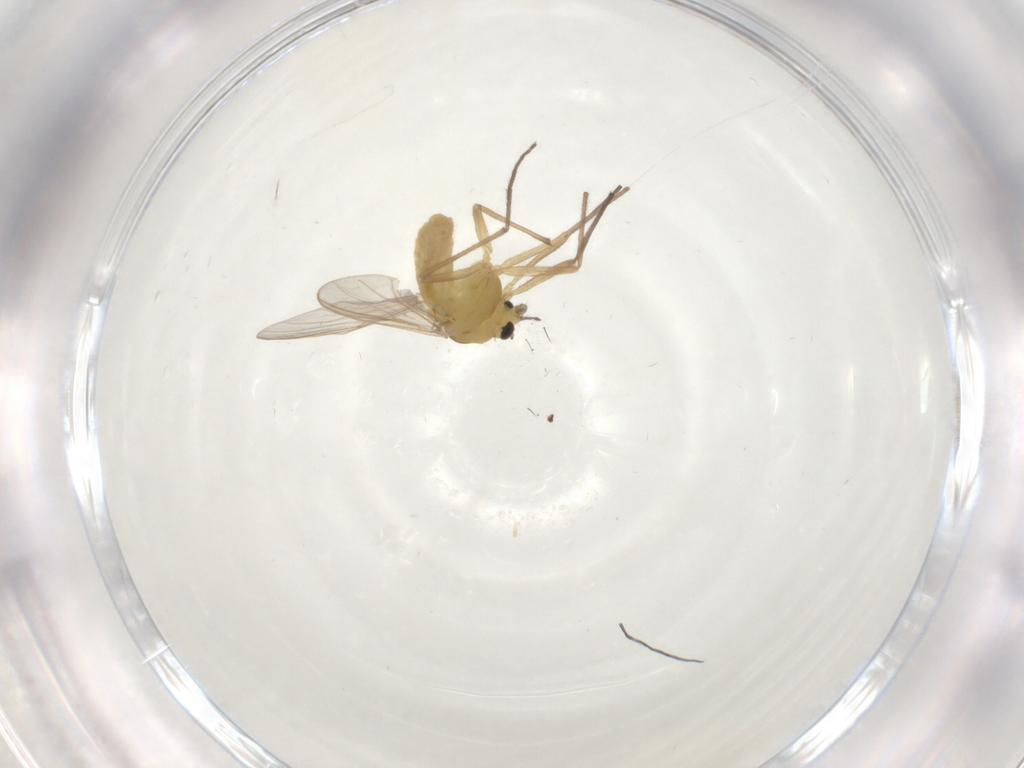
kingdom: Animalia
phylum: Arthropoda
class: Insecta
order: Diptera
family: Chironomidae
